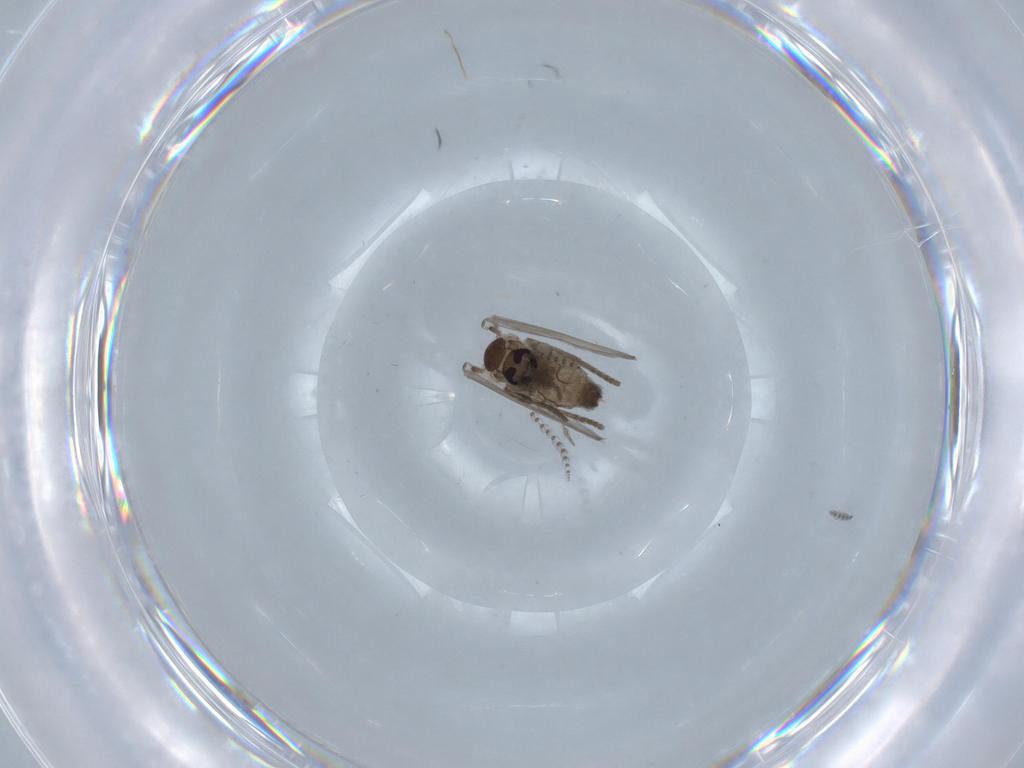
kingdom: Animalia
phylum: Arthropoda
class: Insecta
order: Diptera
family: Psychodidae
